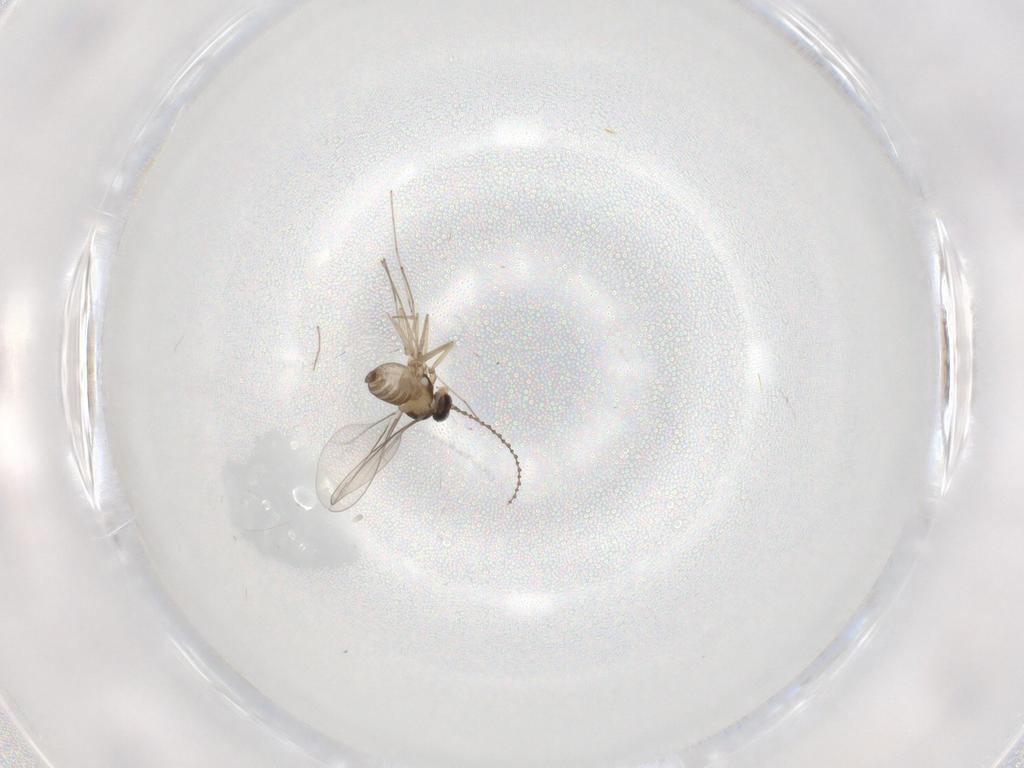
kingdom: Animalia
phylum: Arthropoda
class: Insecta
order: Diptera
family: Cecidomyiidae
